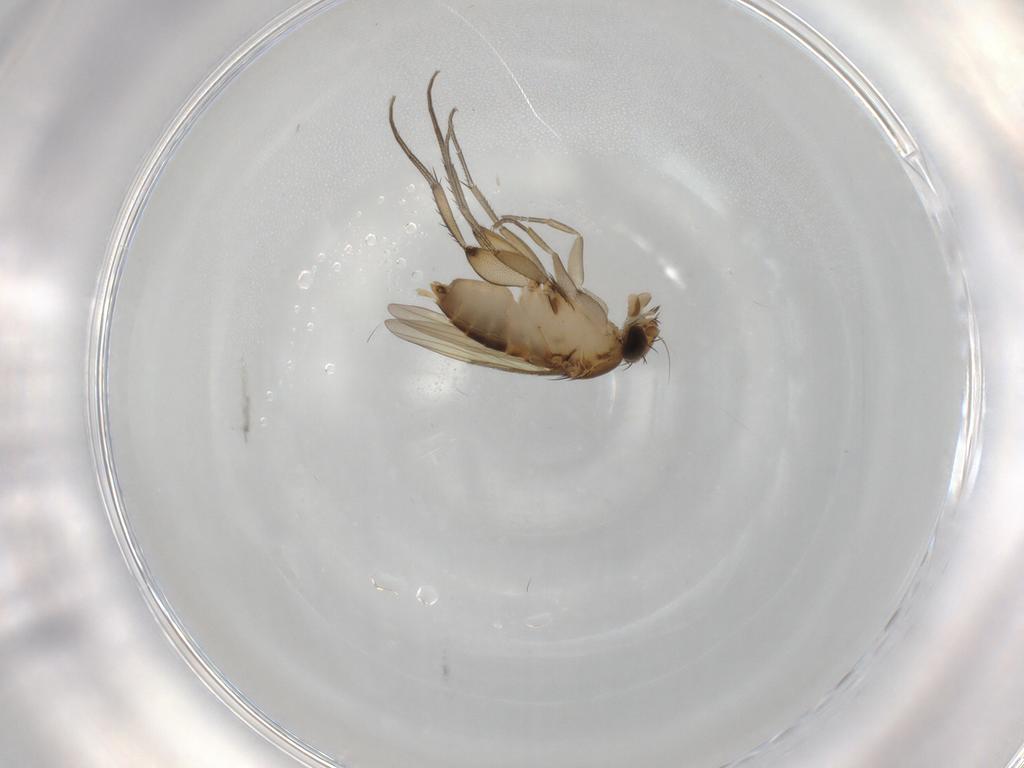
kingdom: Animalia
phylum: Arthropoda
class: Insecta
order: Diptera
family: Phoridae
